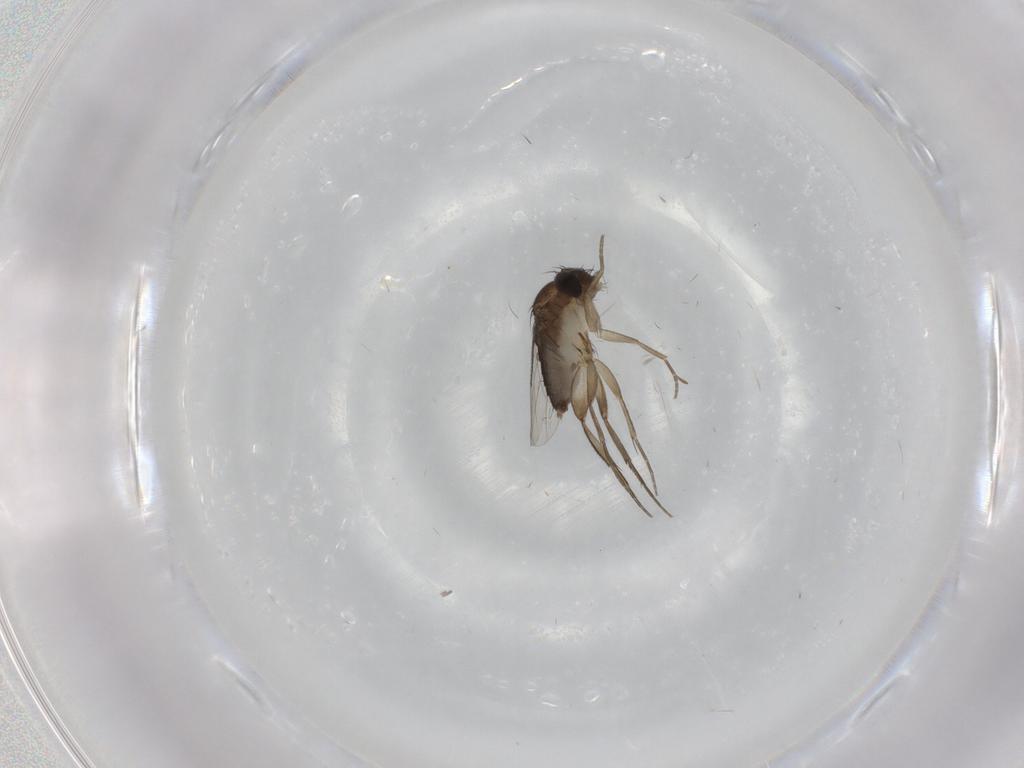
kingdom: Animalia
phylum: Arthropoda
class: Insecta
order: Diptera
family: Phoridae
